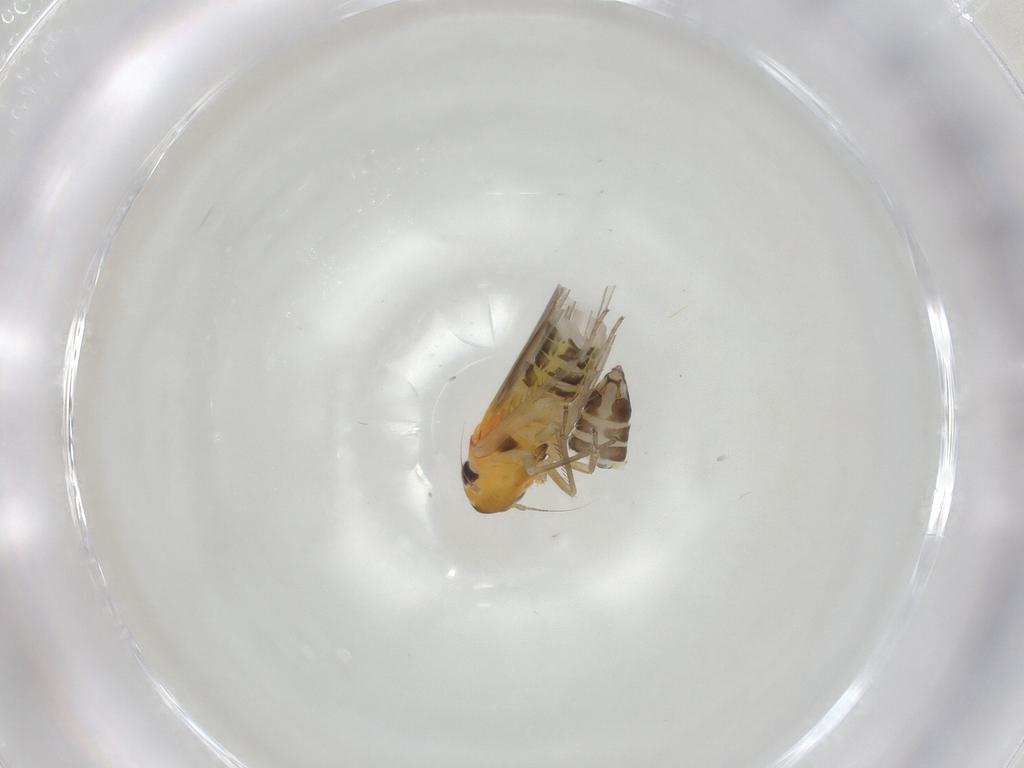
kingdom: Animalia
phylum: Arthropoda
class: Insecta
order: Hemiptera
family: Cicadellidae
